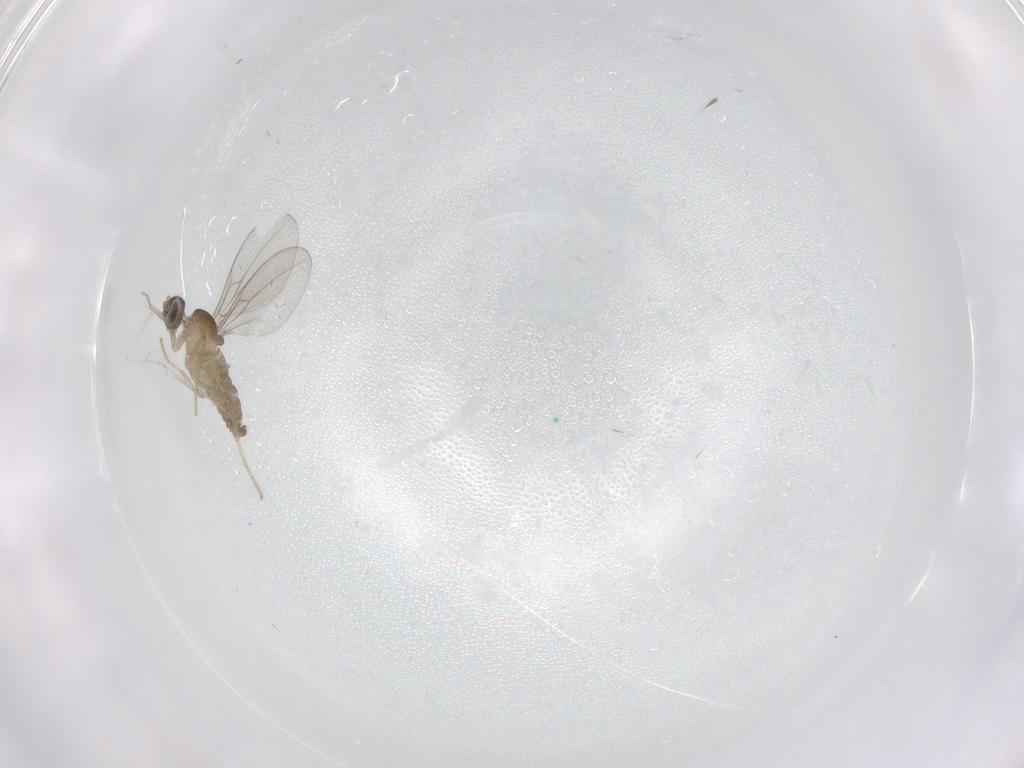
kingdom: Animalia
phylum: Arthropoda
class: Insecta
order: Diptera
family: Cecidomyiidae
